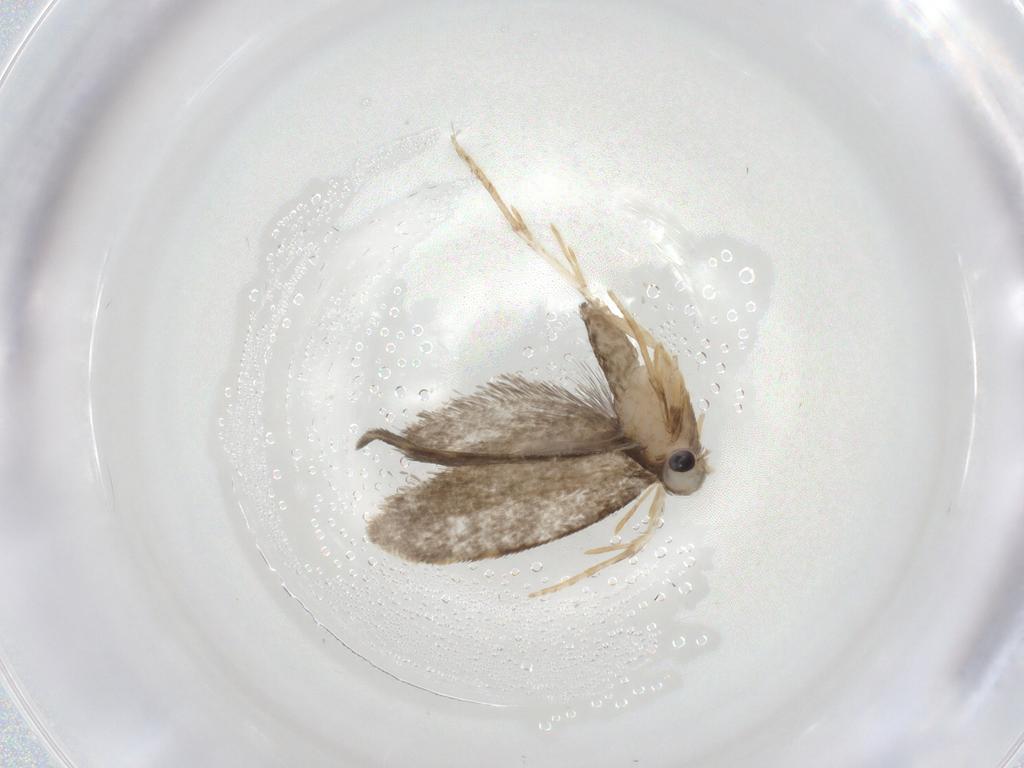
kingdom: Animalia
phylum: Arthropoda
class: Insecta
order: Lepidoptera
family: Psychidae
